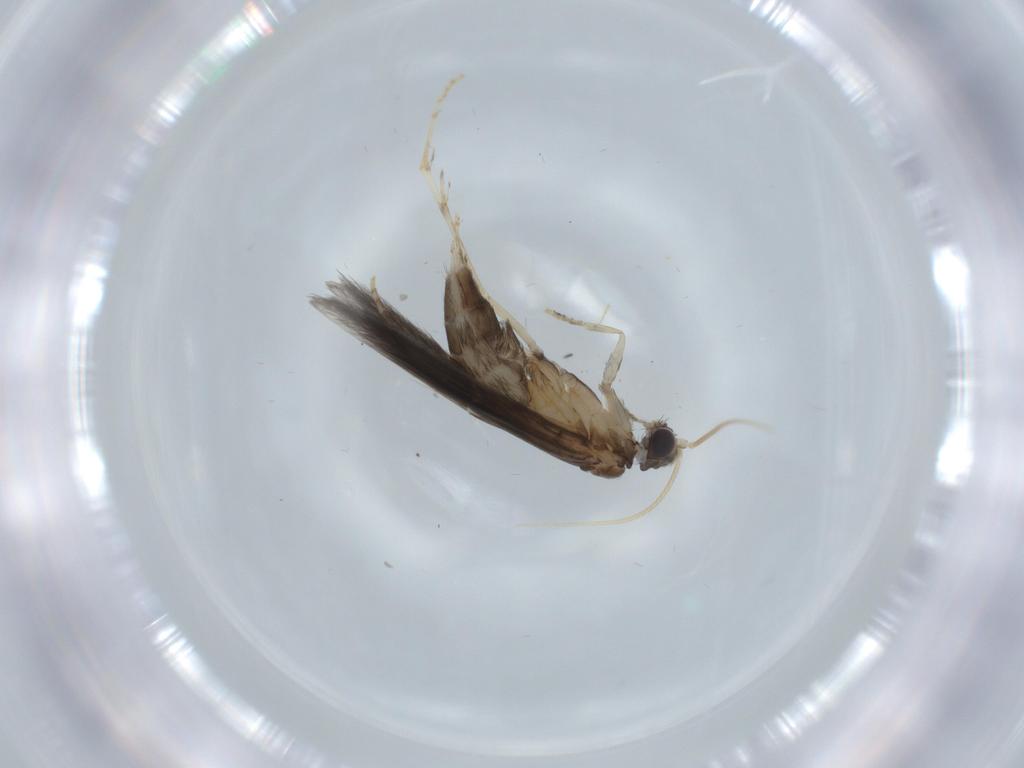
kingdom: Animalia
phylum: Arthropoda
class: Insecta
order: Trichoptera
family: Hydroptilidae
